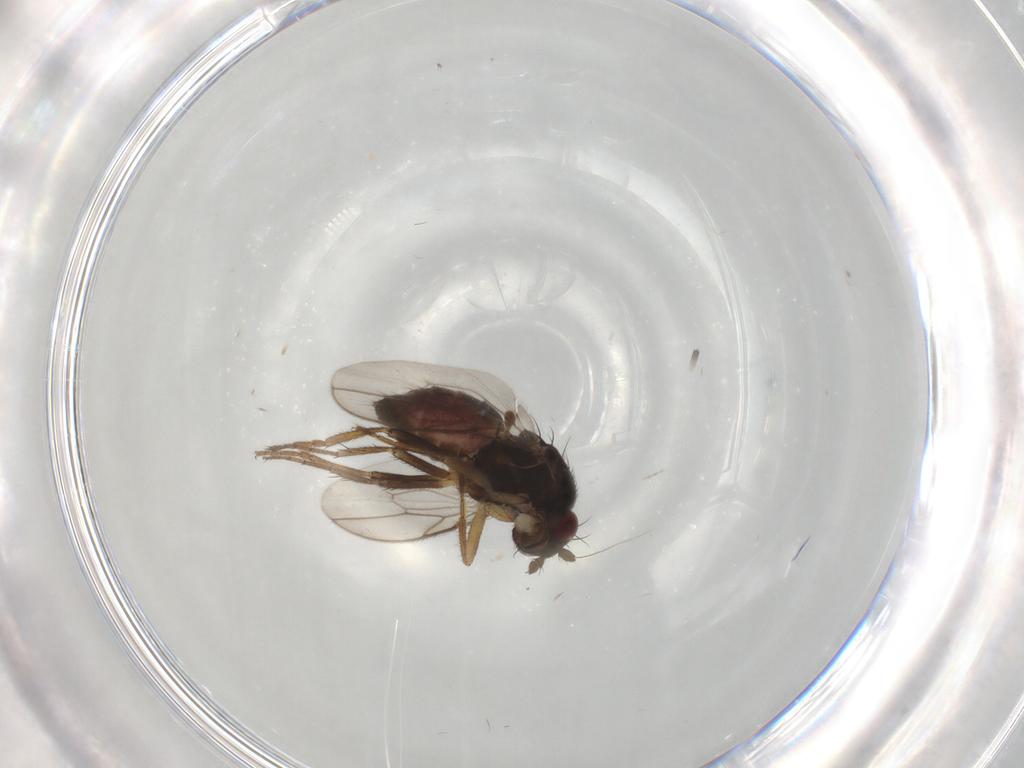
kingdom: Animalia
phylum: Arthropoda
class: Insecta
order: Diptera
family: Sphaeroceridae
